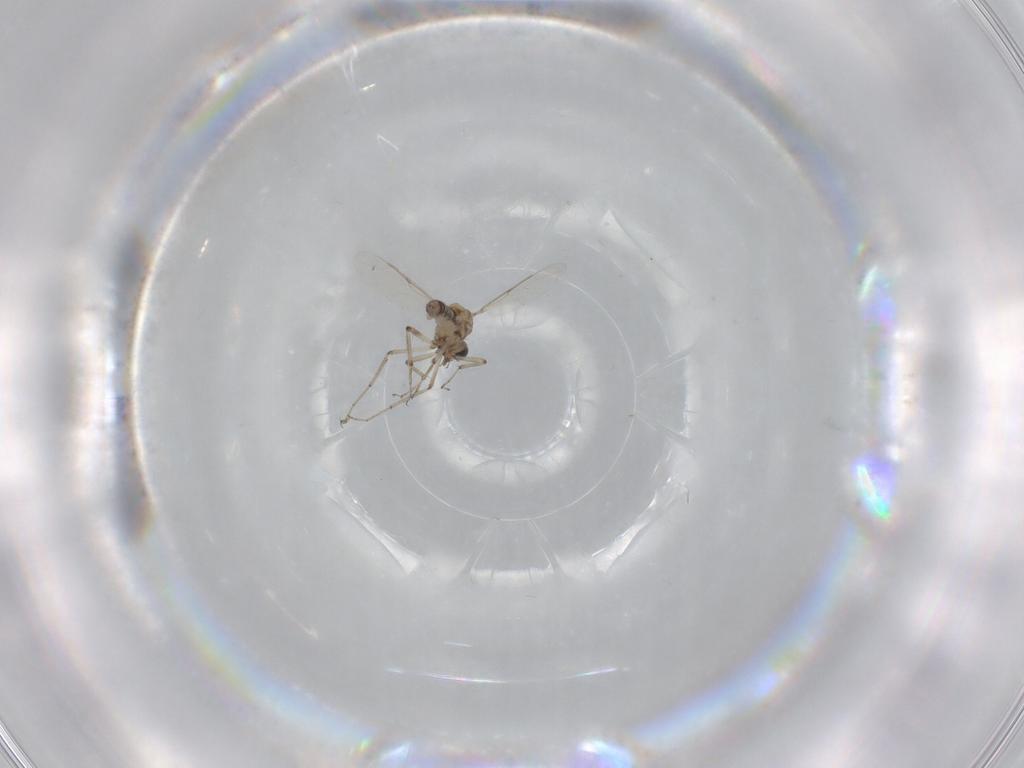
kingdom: Animalia
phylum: Arthropoda
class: Insecta
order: Diptera
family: Ceratopogonidae
